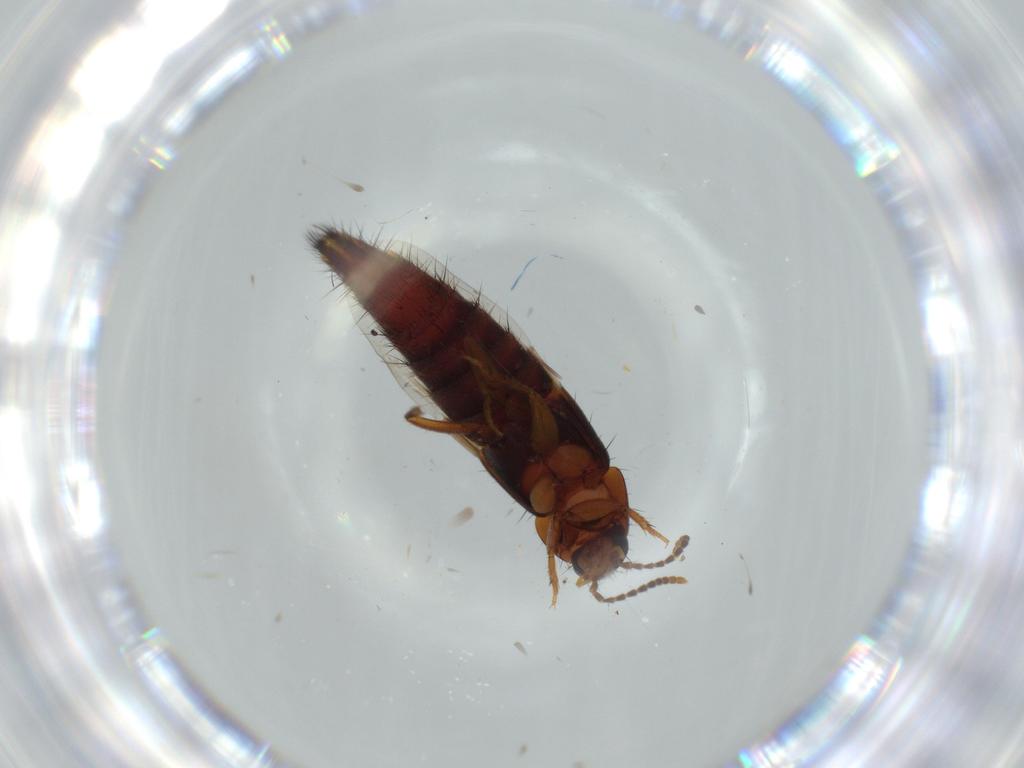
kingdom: Animalia
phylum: Arthropoda
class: Insecta
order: Coleoptera
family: Staphylinidae
